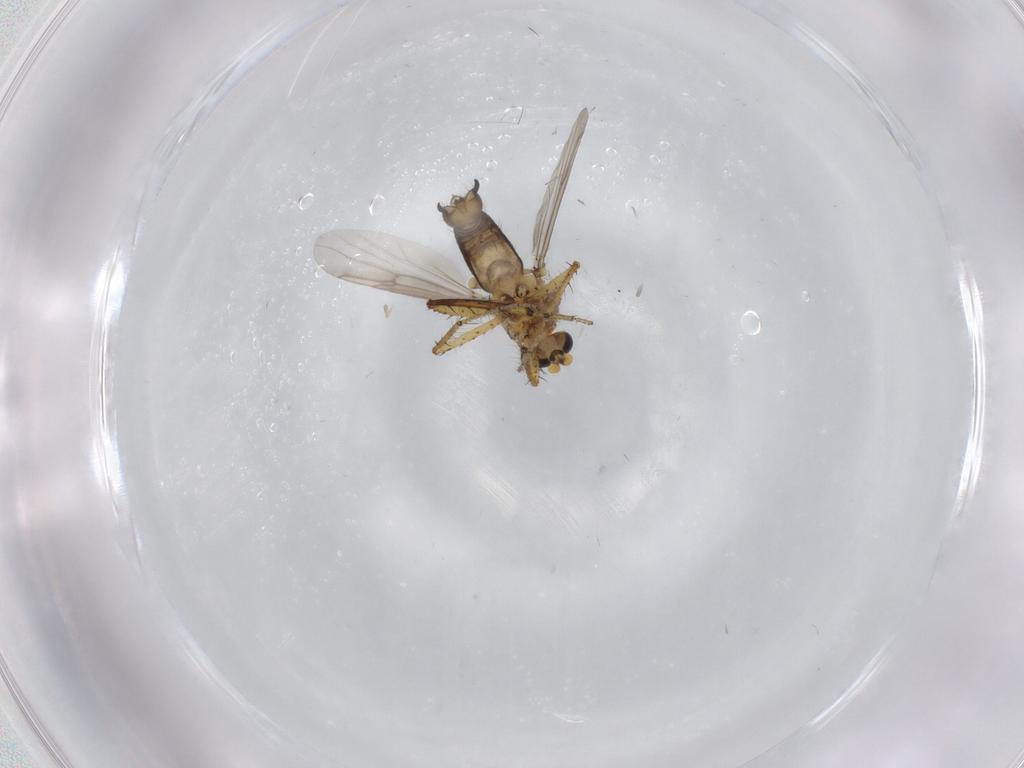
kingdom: Animalia
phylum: Arthropoda
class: Insecta
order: Diptera
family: Ceratopogonidae
